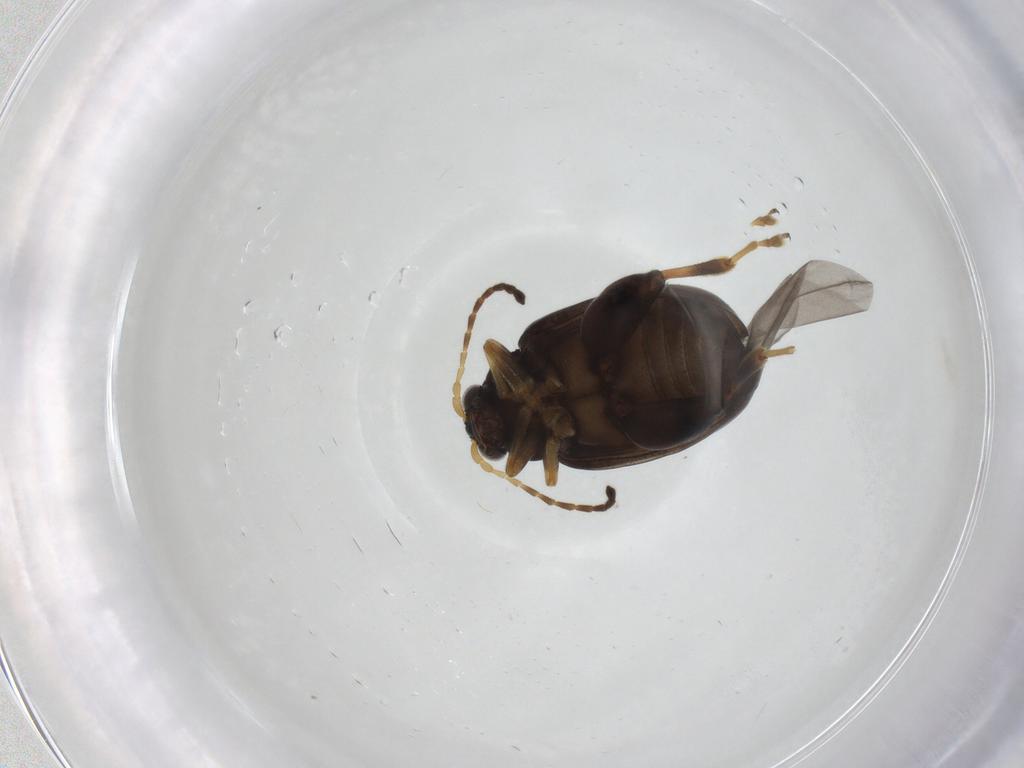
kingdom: Animalia
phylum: Arthropoda
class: Insecta
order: Coleoptera
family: Chrysomelidae
